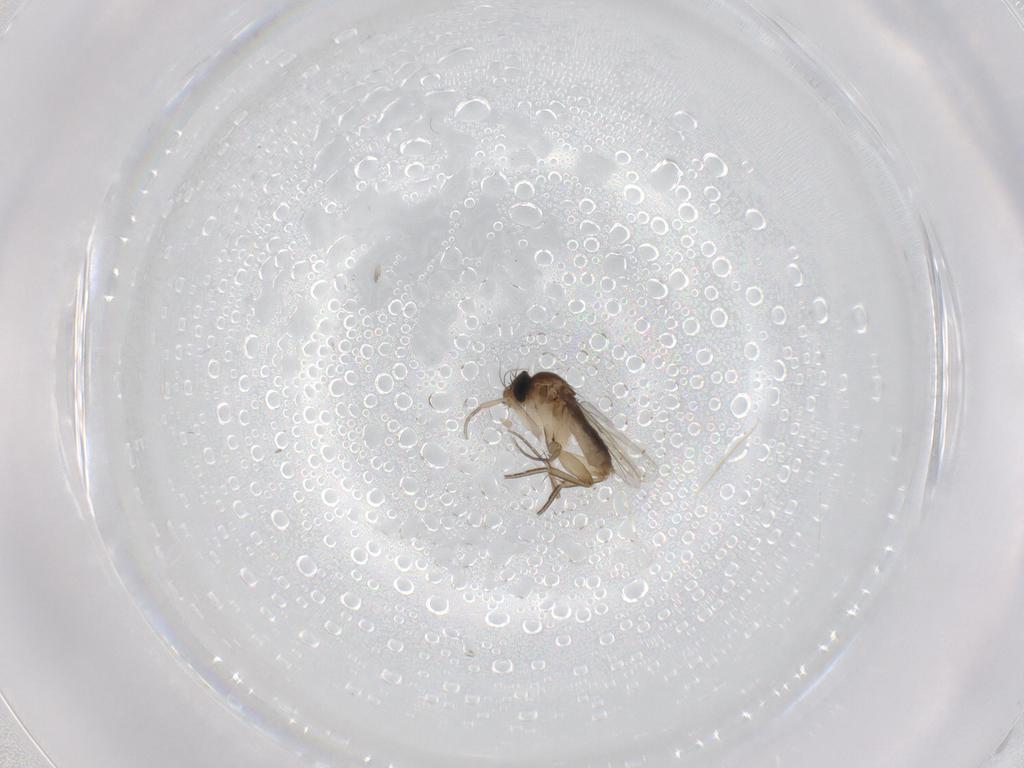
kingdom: Animalia
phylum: Arthropoda
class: Insecta
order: Diptera
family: Phoridae
